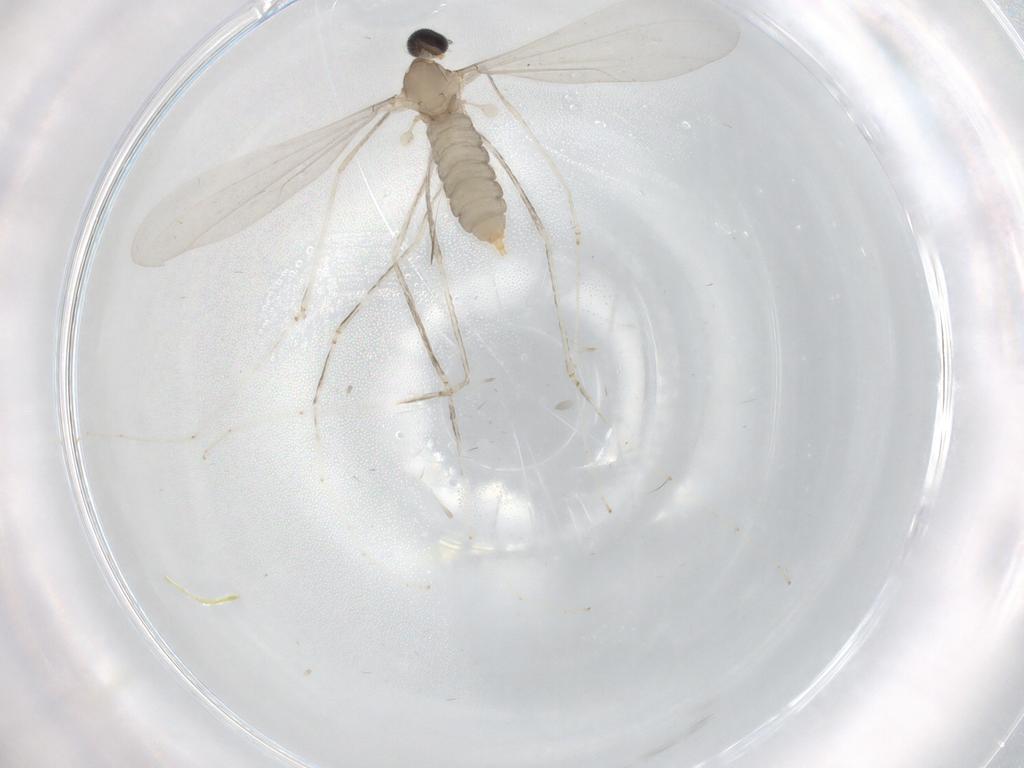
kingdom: Animalia
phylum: Arthropoda
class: Insecta
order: Diptera
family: Cecidomyiidae
